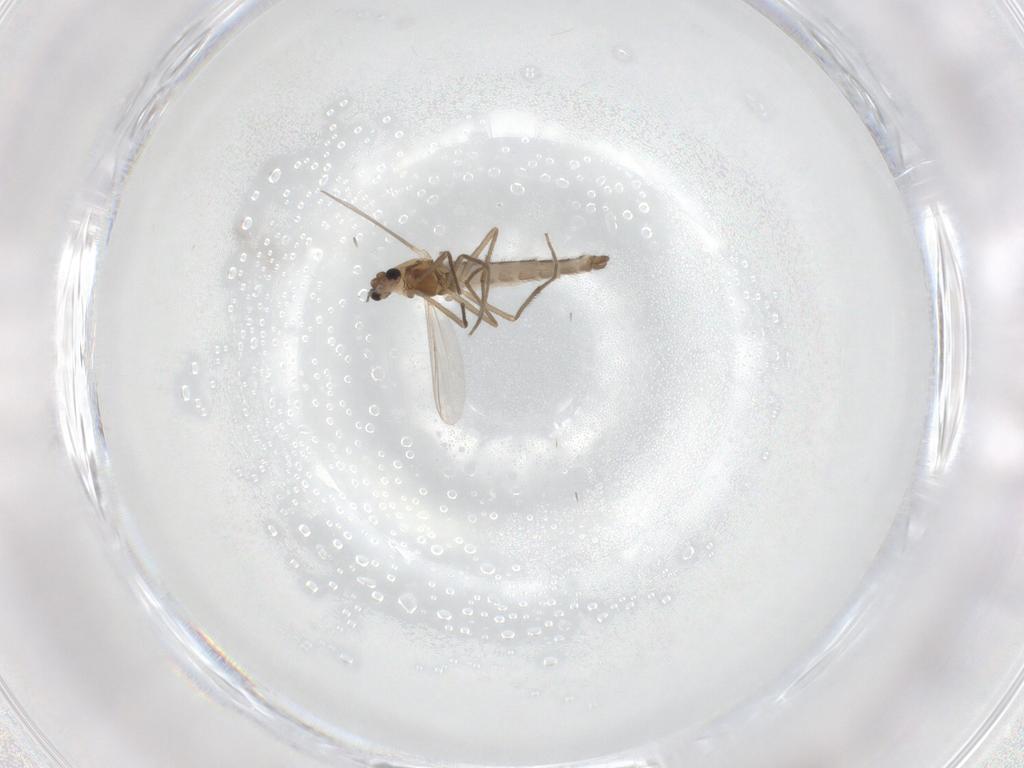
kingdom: Animalia
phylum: Arthropoda
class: Insecta
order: Diptera
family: Chironomidae
